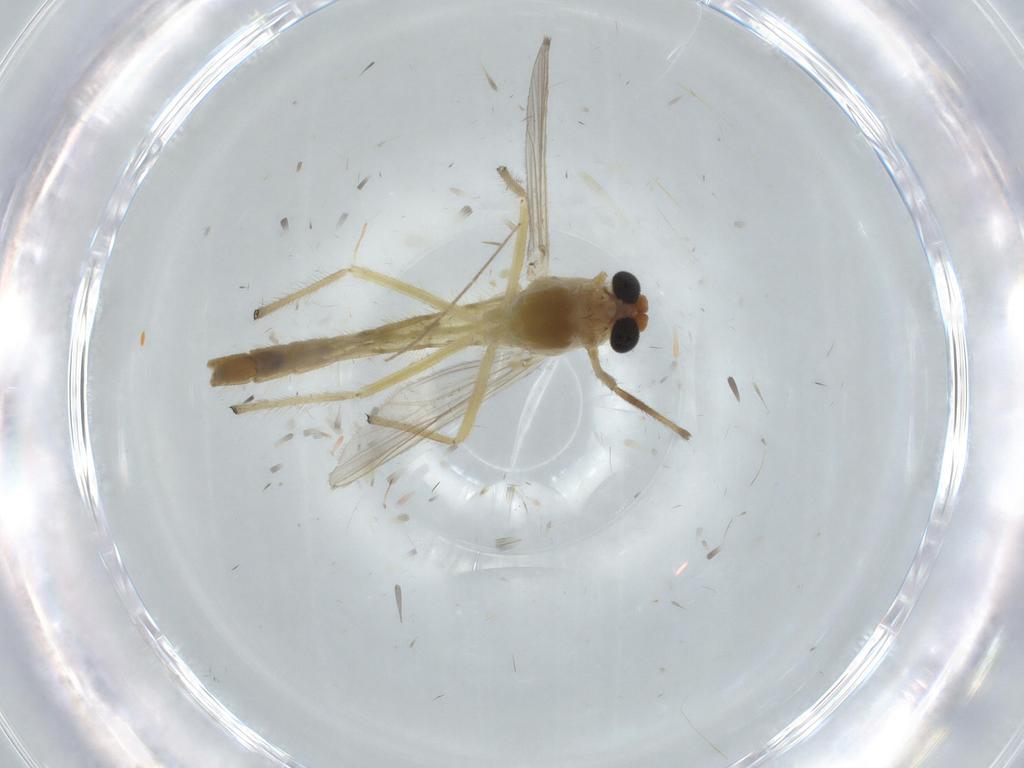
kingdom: Animalia
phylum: Arthropoda
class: Insecta
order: Diptera
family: Chironomidae
